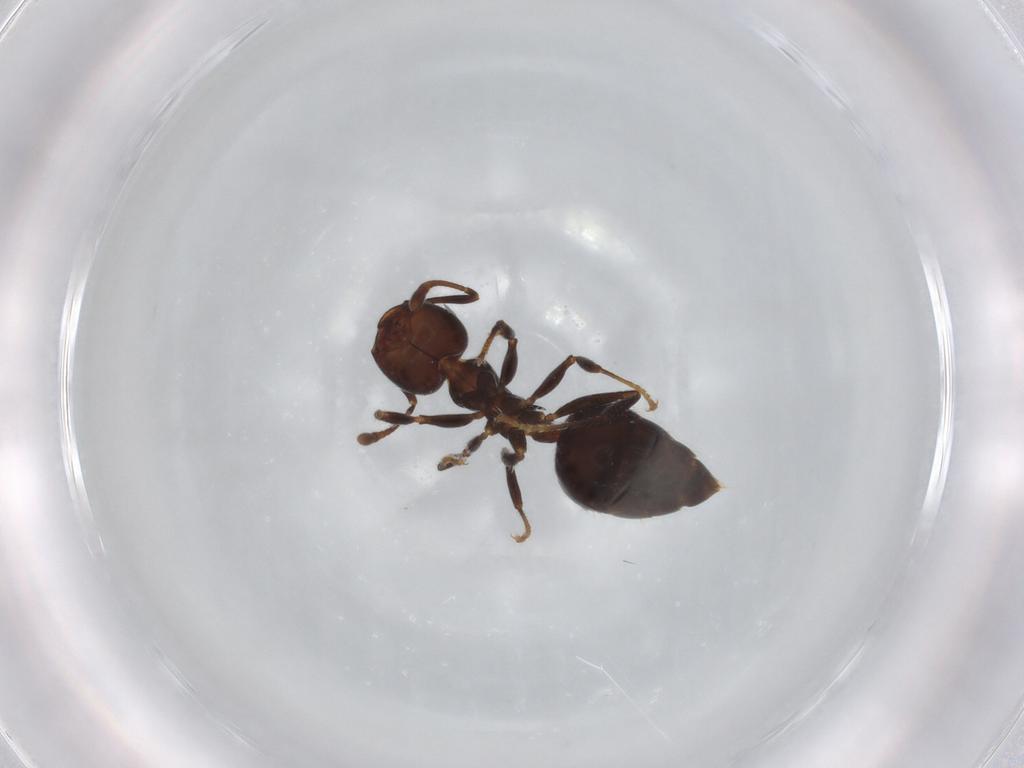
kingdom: Animalia
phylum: Arthropoda
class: Insecta
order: Hymenoptera
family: Formicidae
